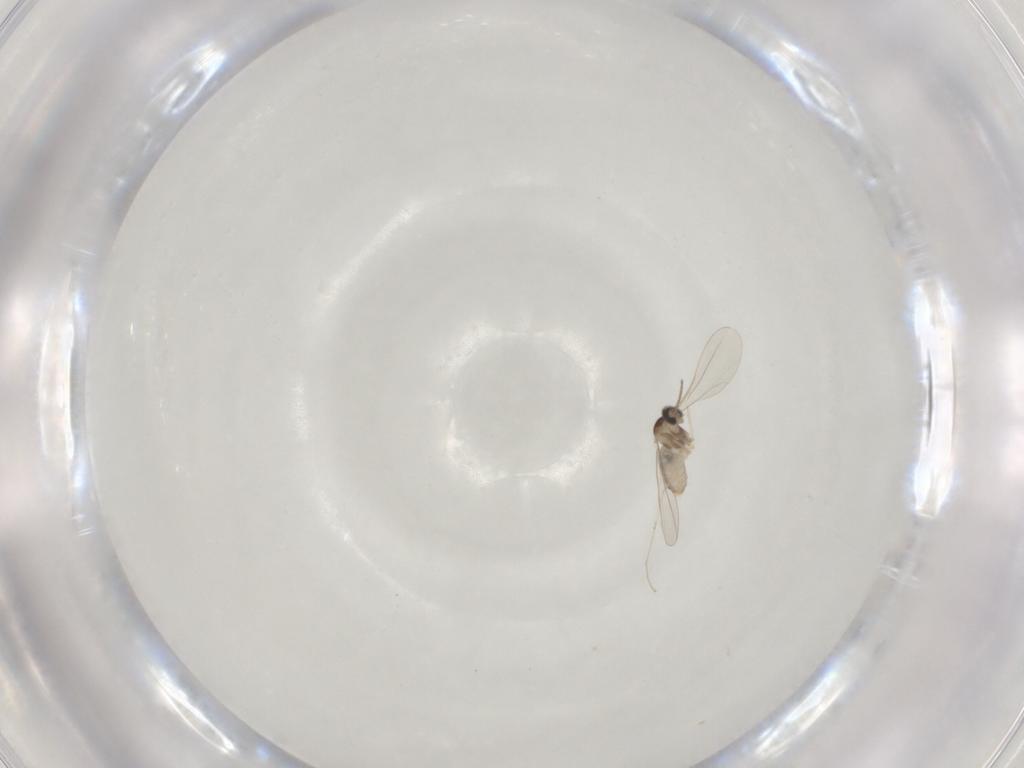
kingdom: Animalia
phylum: Arthropoda
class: Insecta
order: Diptera
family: Cecidomyiidae
